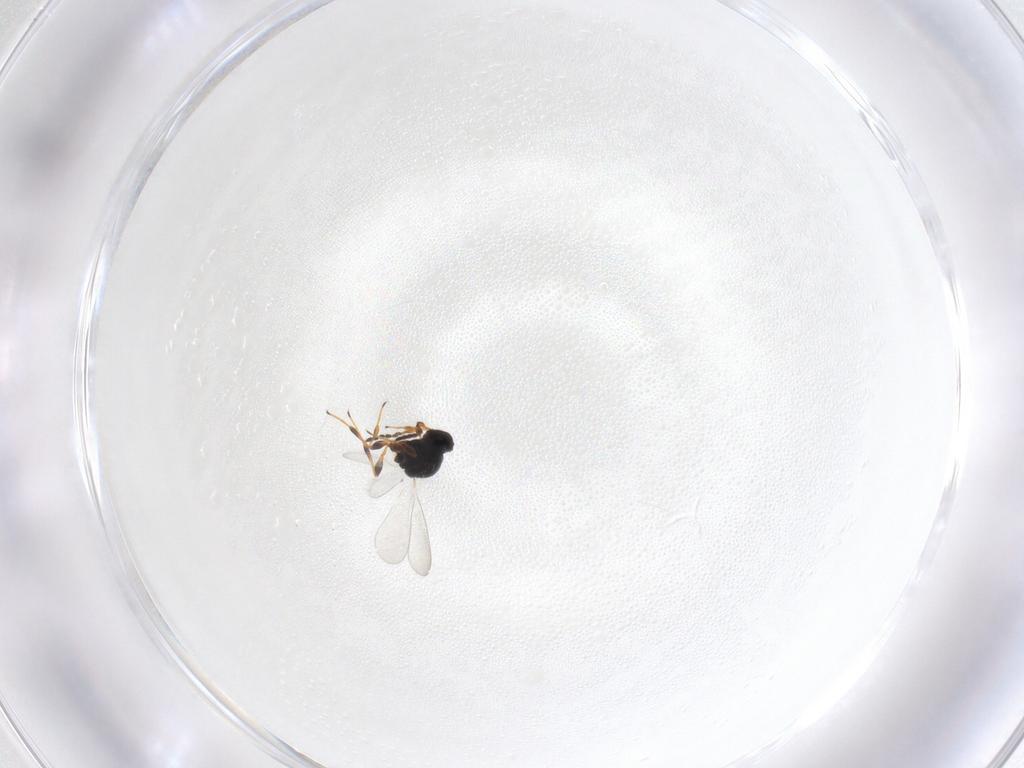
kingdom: Animalia
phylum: Arthropoda
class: Insecta
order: Hymenoptera
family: Platygastridae
